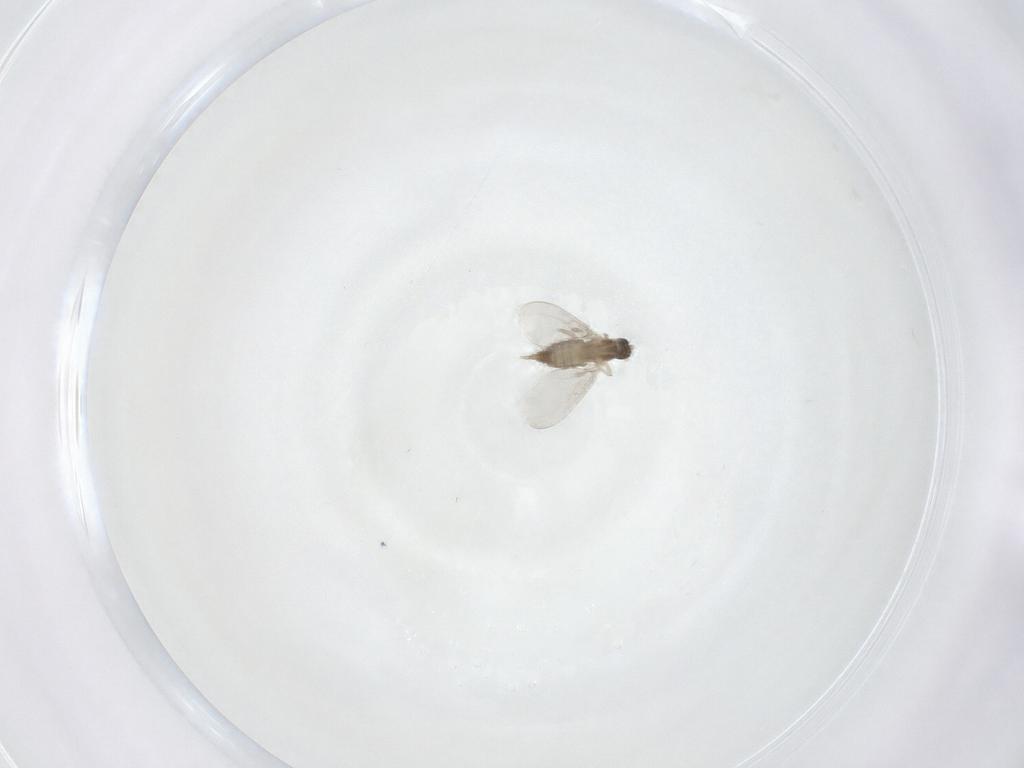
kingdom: Animalia
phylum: Arthropoda
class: Insecta
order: Diptera
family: Cecidomyiidae
